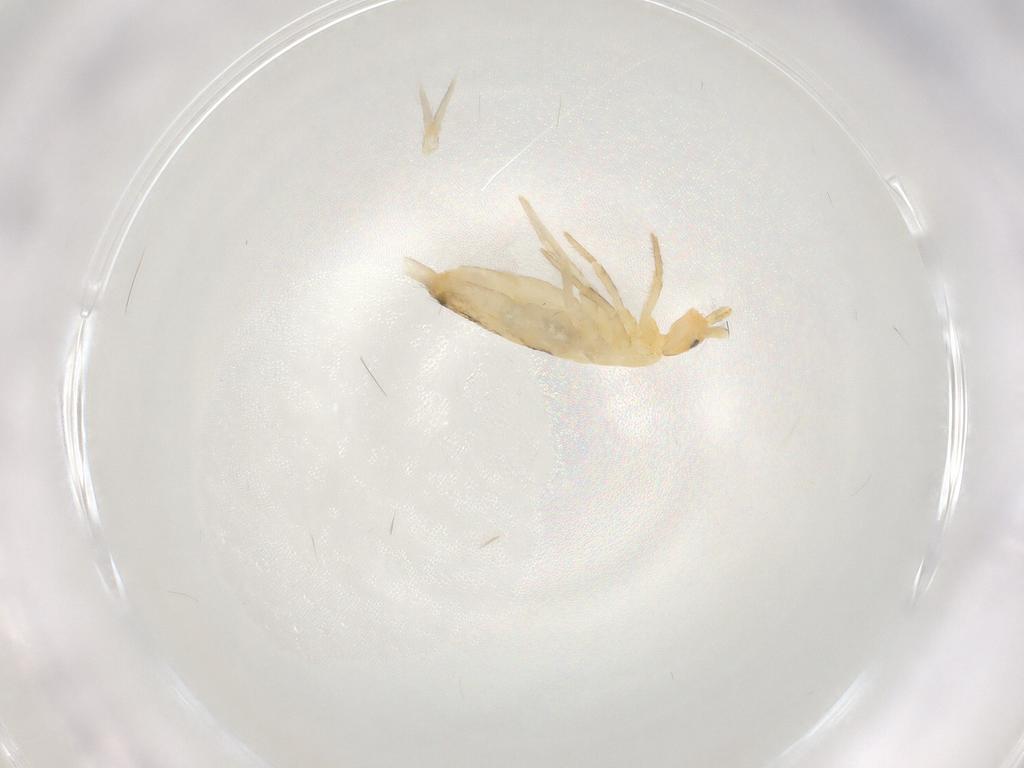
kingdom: Animalia
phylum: Arthropoda
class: Collembola
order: Entomobryomorpha
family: Entomobryidae
